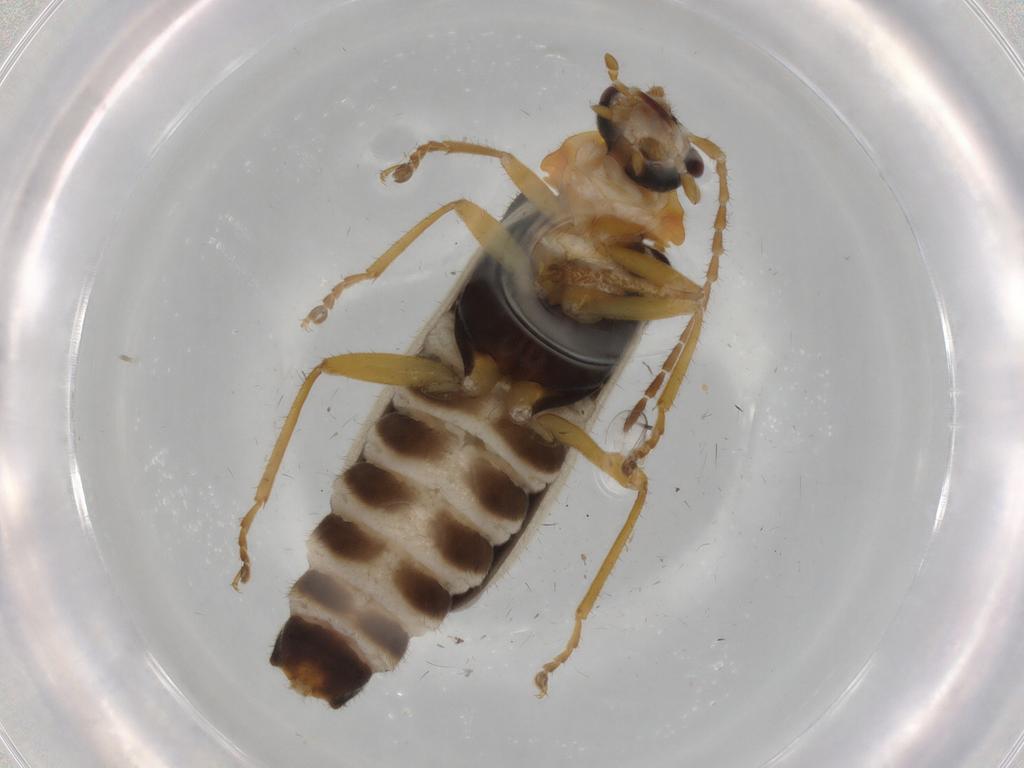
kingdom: Animalia
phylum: Arthropoda
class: Insecta
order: Coleoptera
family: Cantharidae
